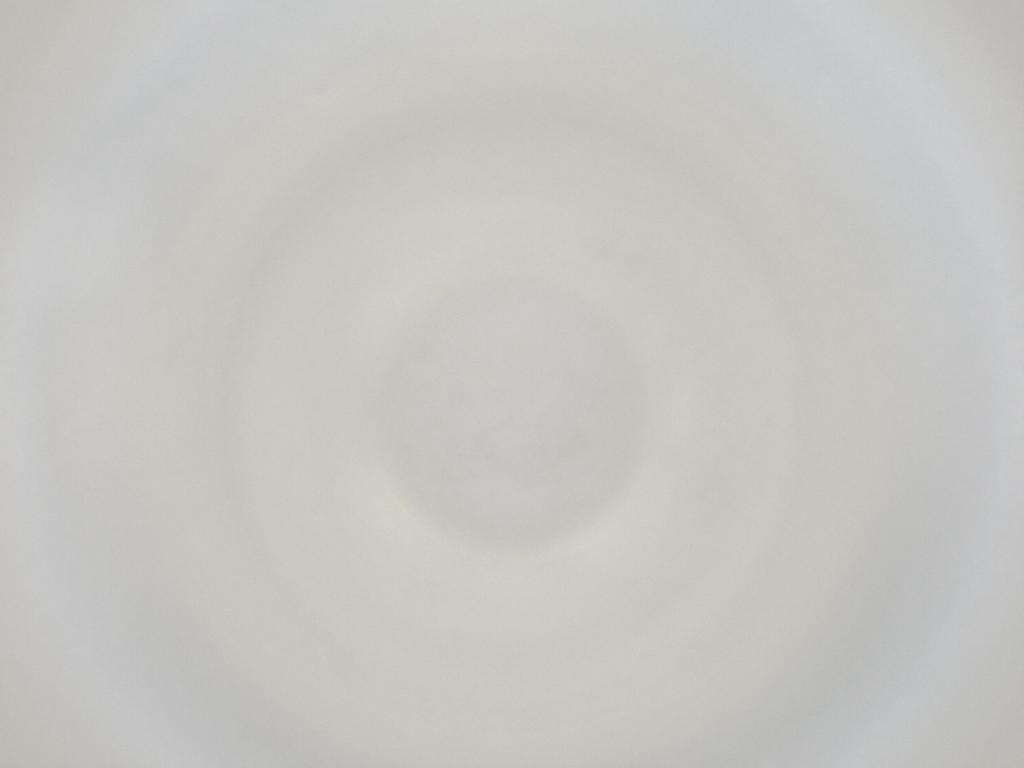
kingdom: Animalia
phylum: Arthropoda
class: Insecta
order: Diptera
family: Cecidomyiidae
